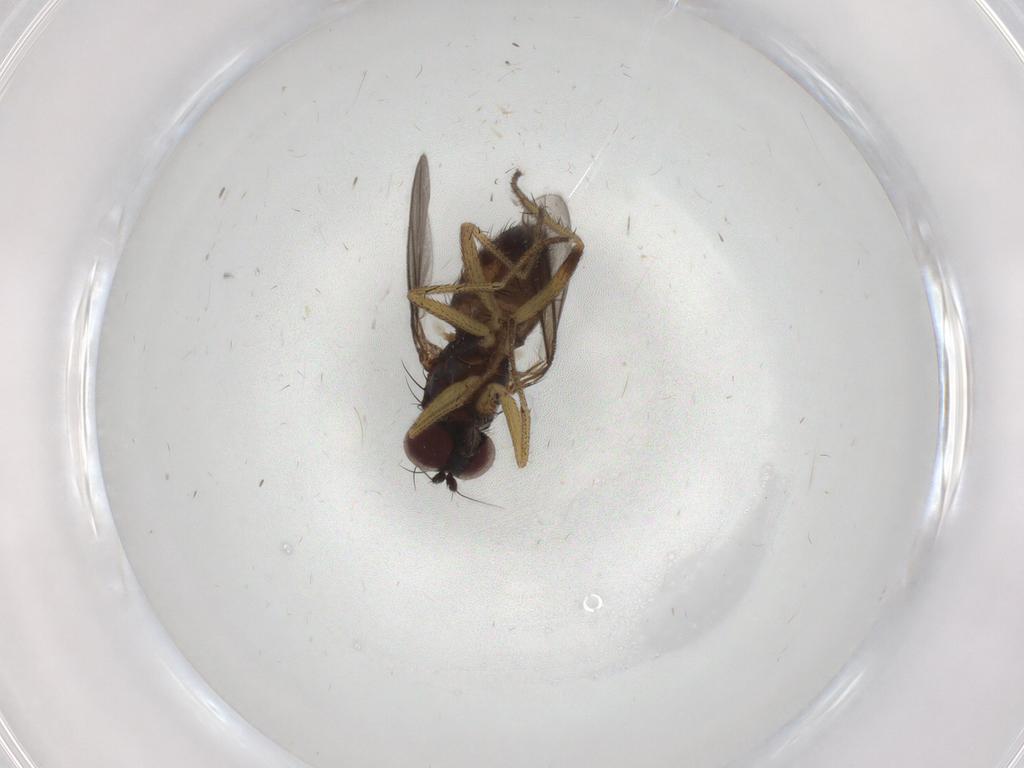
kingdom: Animalia
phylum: Arthropoda
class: Insecta
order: Diptera
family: Dolichopodidae
